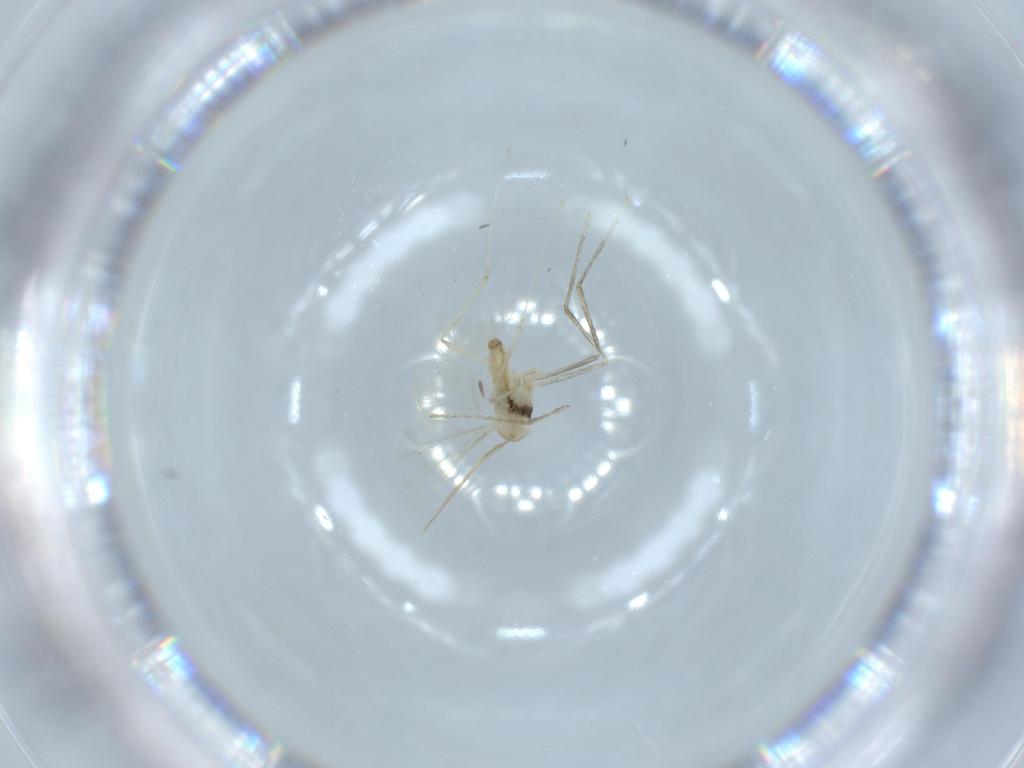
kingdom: Animalia
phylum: Arthropoda
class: Insecta
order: Diptera
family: Cecidomyiidae
